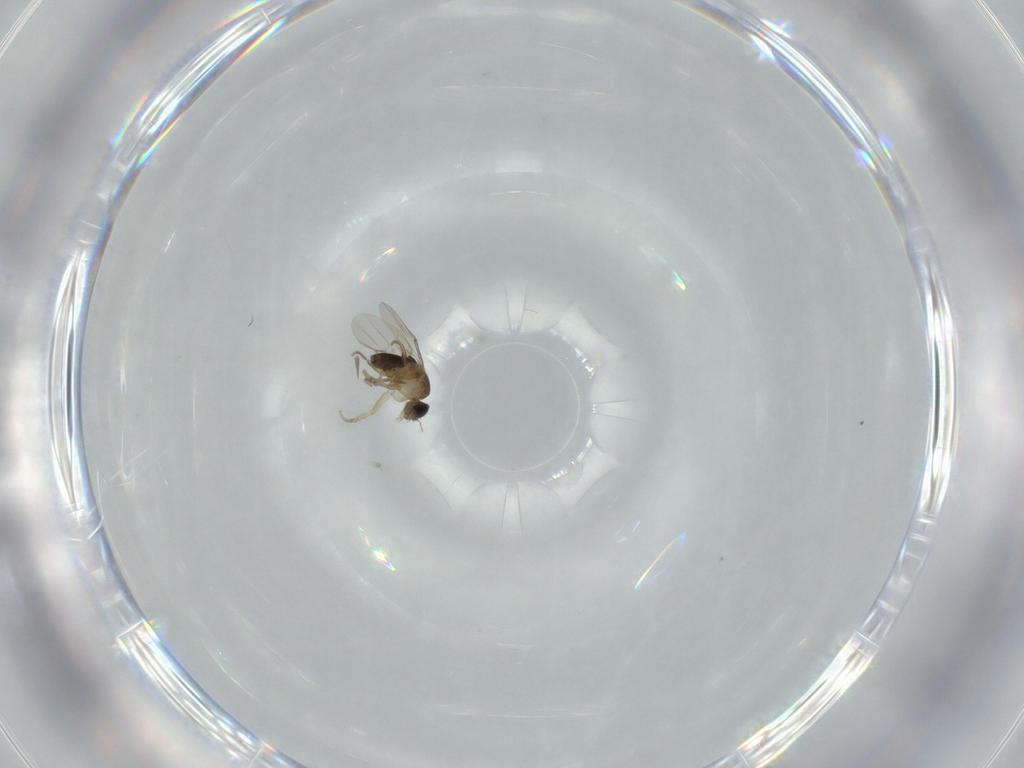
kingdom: Animalia
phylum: Arthropoda
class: Insecta
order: Diptera
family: Phoridae
